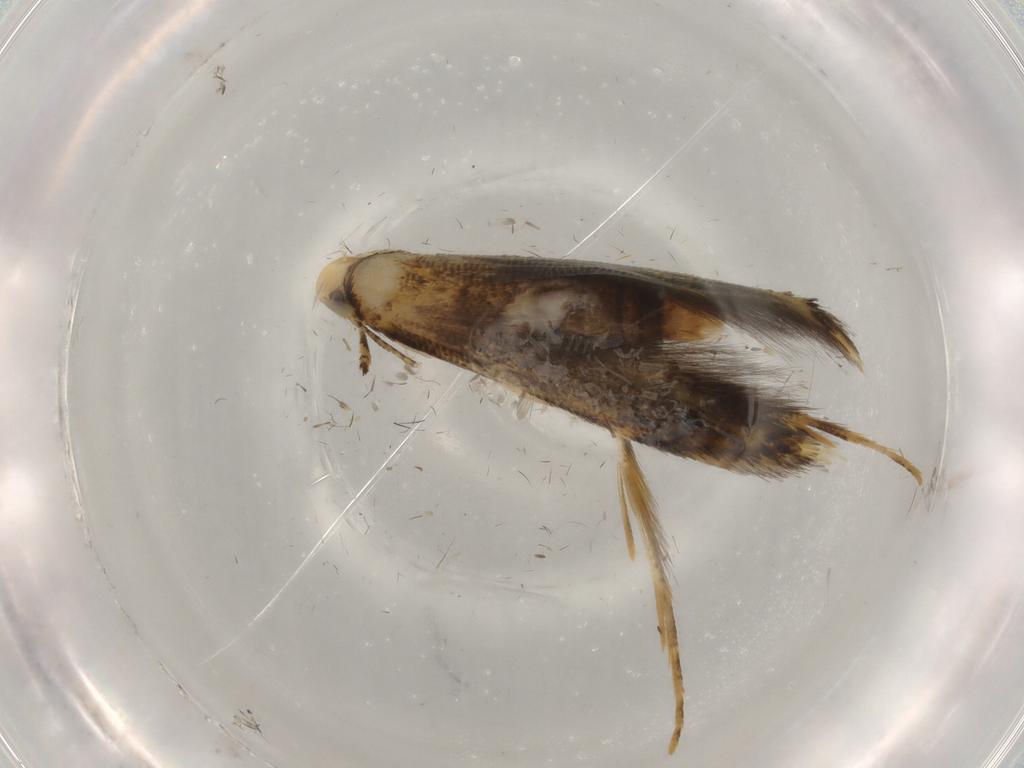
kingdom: Animalia
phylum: Arthropoda
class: Insecta
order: Lepidoptera
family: Cosmopterigidae
